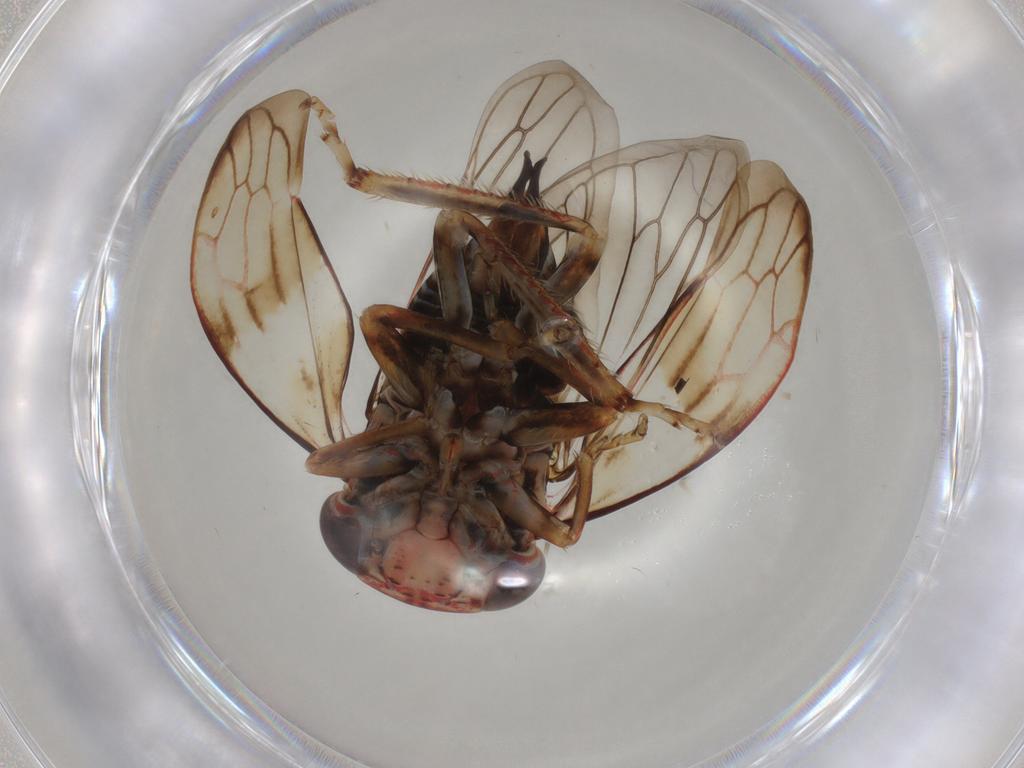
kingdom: Animalia
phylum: Arthropoda
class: Insecta
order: Hemiptera
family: Cicadellidae
